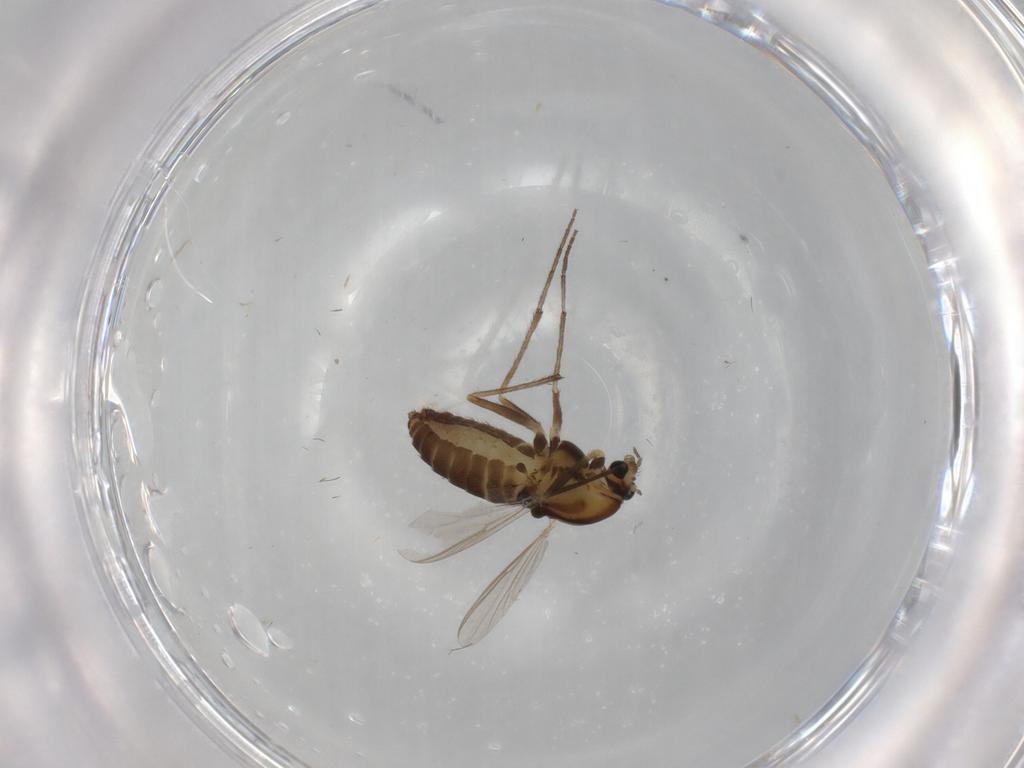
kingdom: Animalia
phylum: Arthropoda
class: Insecta
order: Diptera
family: Chironomidae
